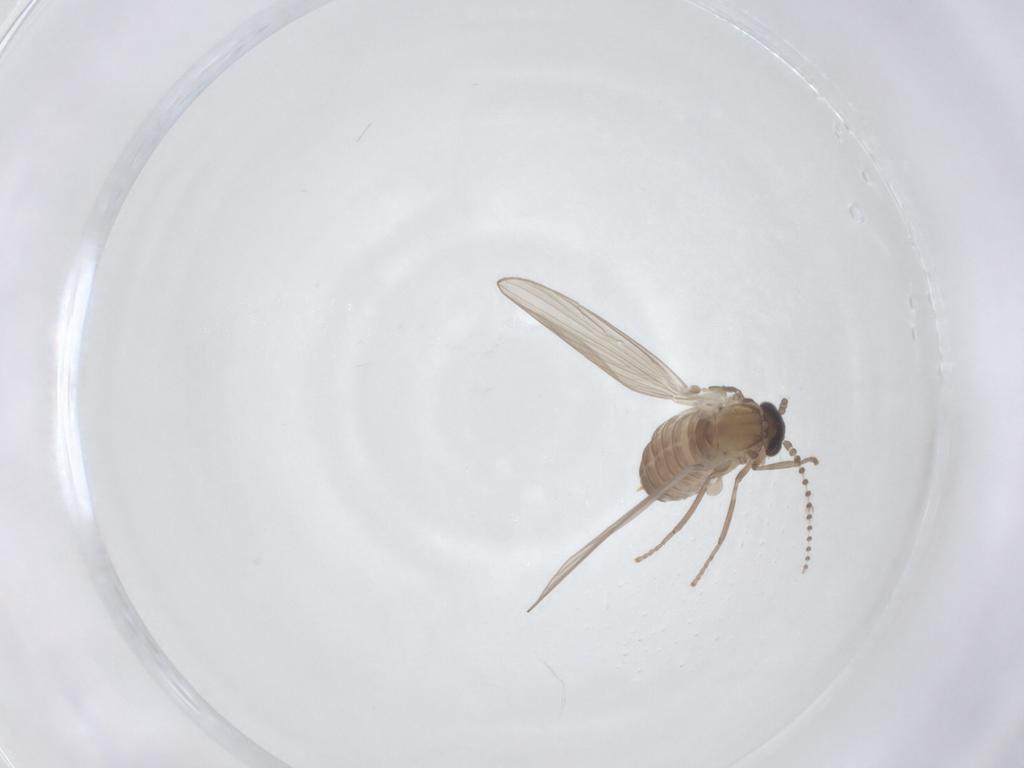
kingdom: Animalia
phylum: Arthropoda
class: Insecta
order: Diptera
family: Psychodidae
